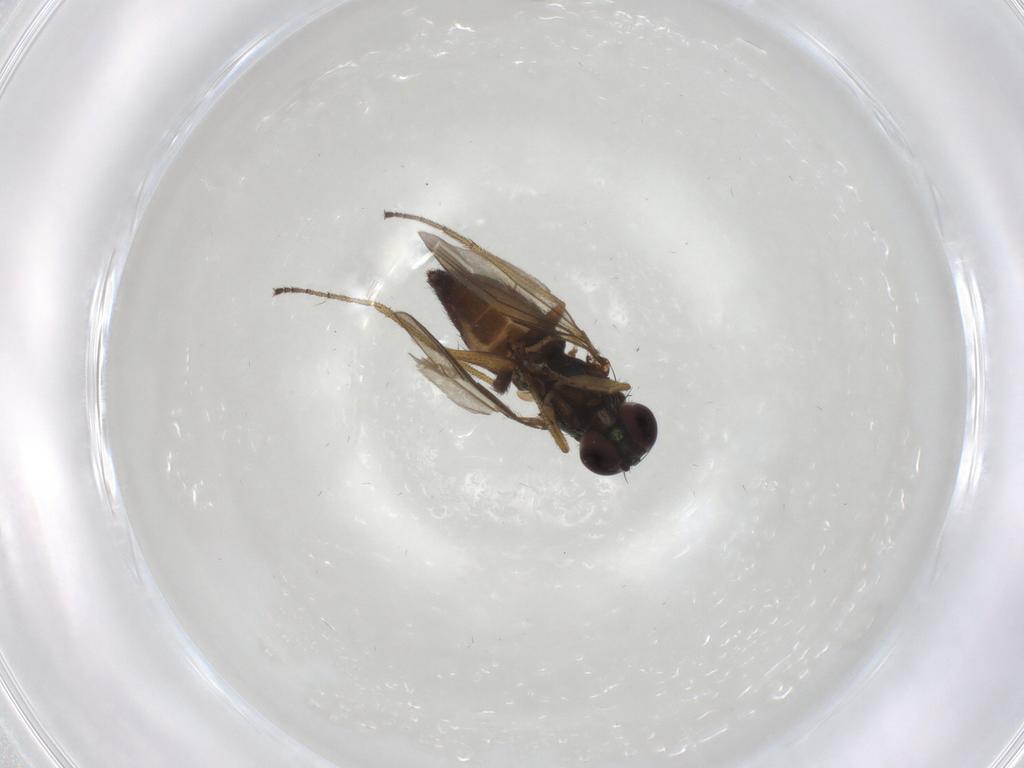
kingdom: Animalia
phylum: Arthropoda
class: Insecta
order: Diptera
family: Dolichopodidae
